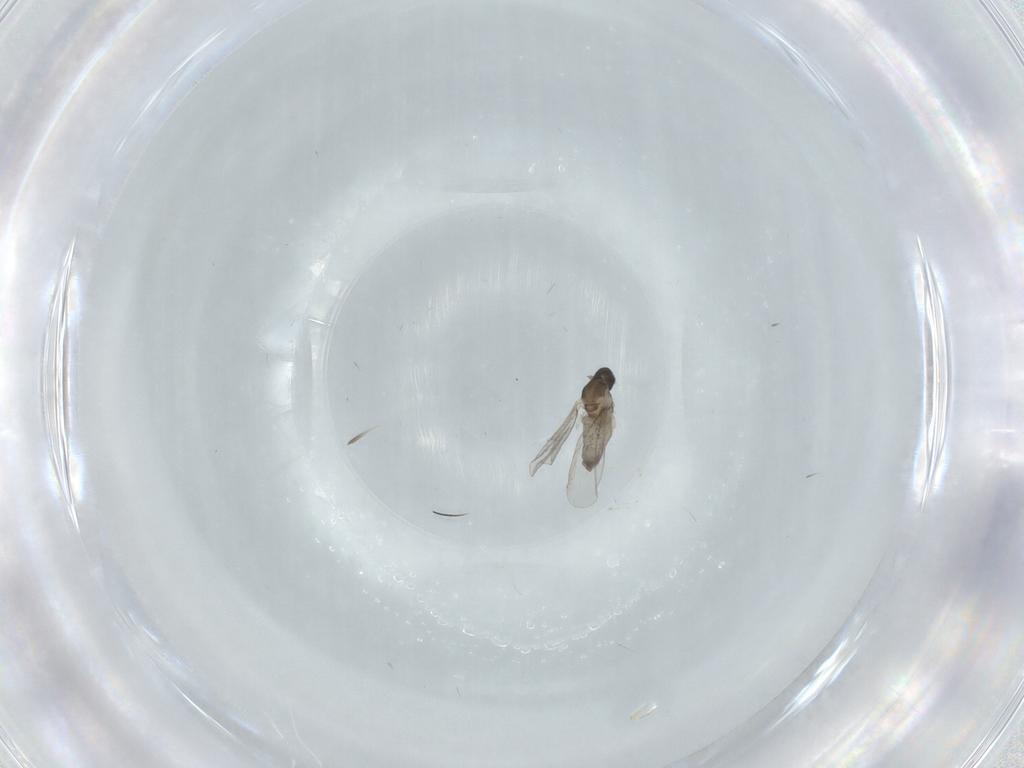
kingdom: Animalia
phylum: Arthropoda
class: Insecta
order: Diptera
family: Cecidomyiidae
